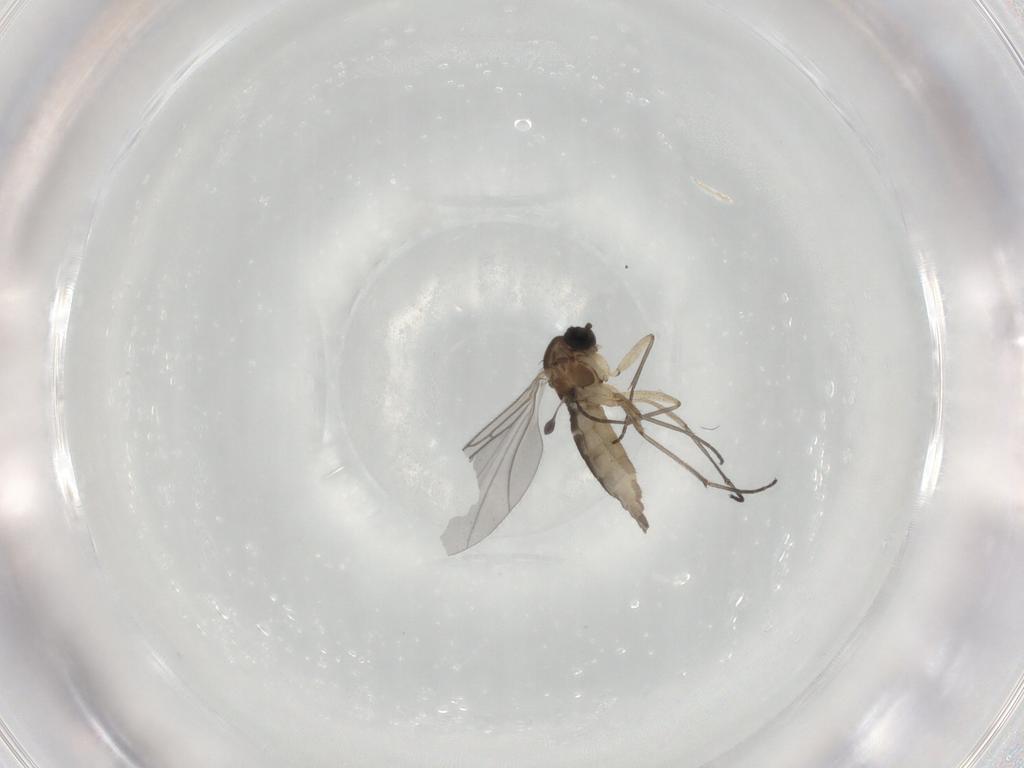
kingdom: Animalia
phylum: Arthropoda
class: Insecta
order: Diptera
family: Sciaridae
